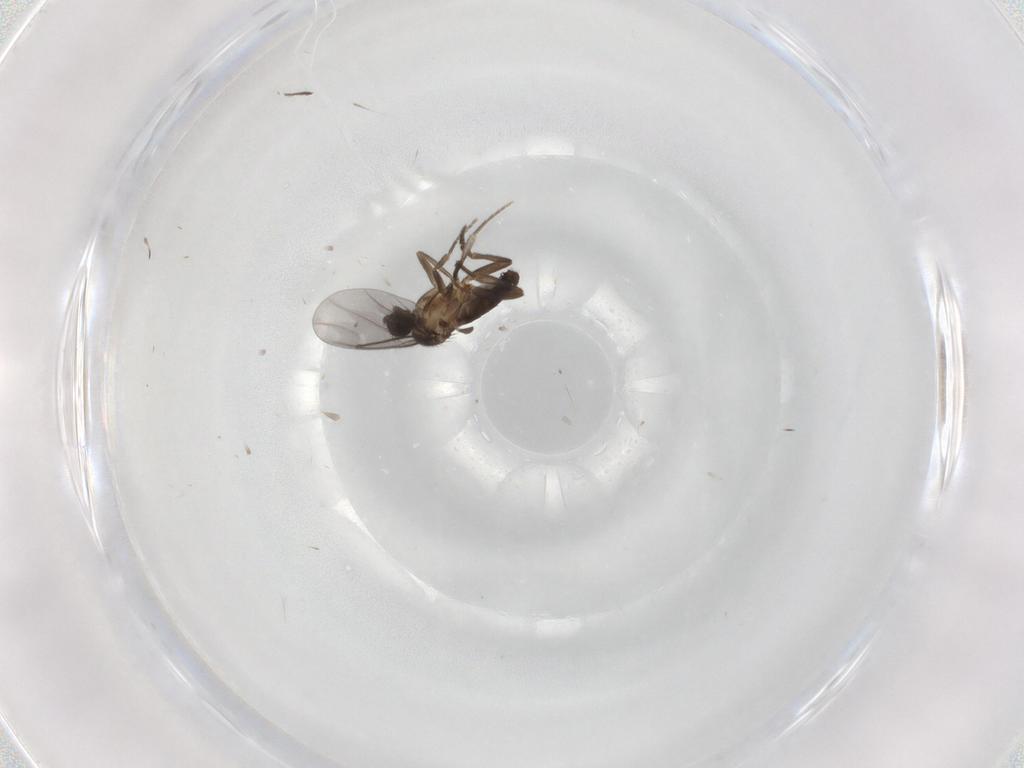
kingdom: Animalia
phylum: Arthropoda
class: Insecta
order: Diptera
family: Phoridae
